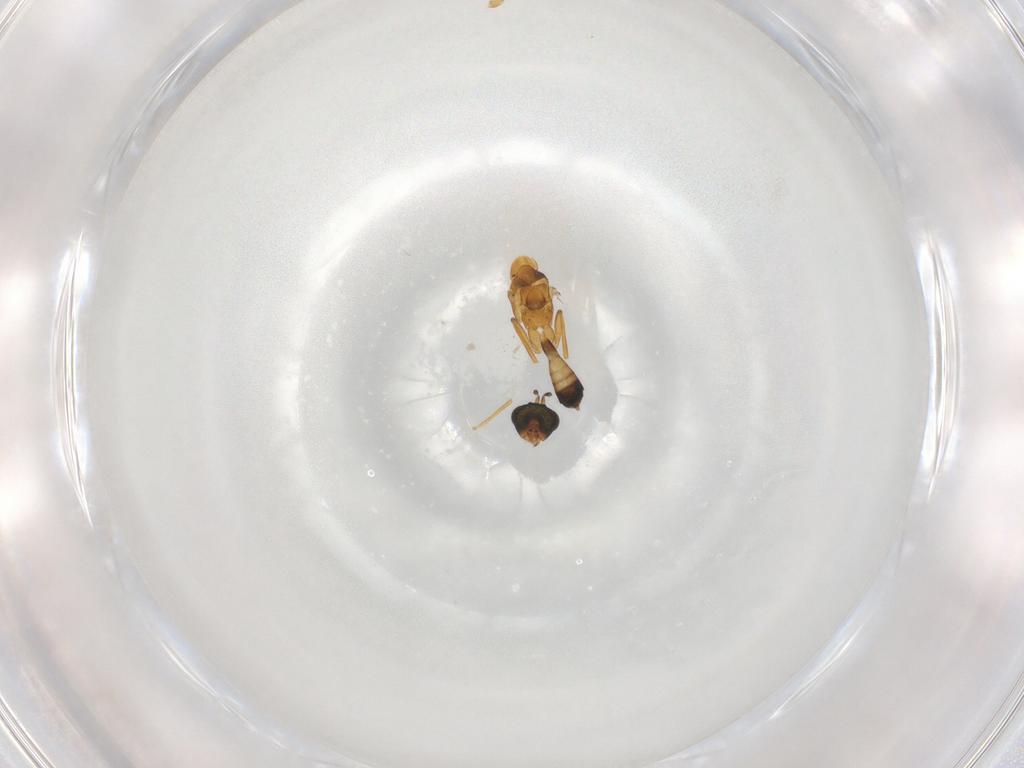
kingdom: Animalia
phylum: Arthropoda
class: Insecta
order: Hymenoptera
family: Eupelmidae
